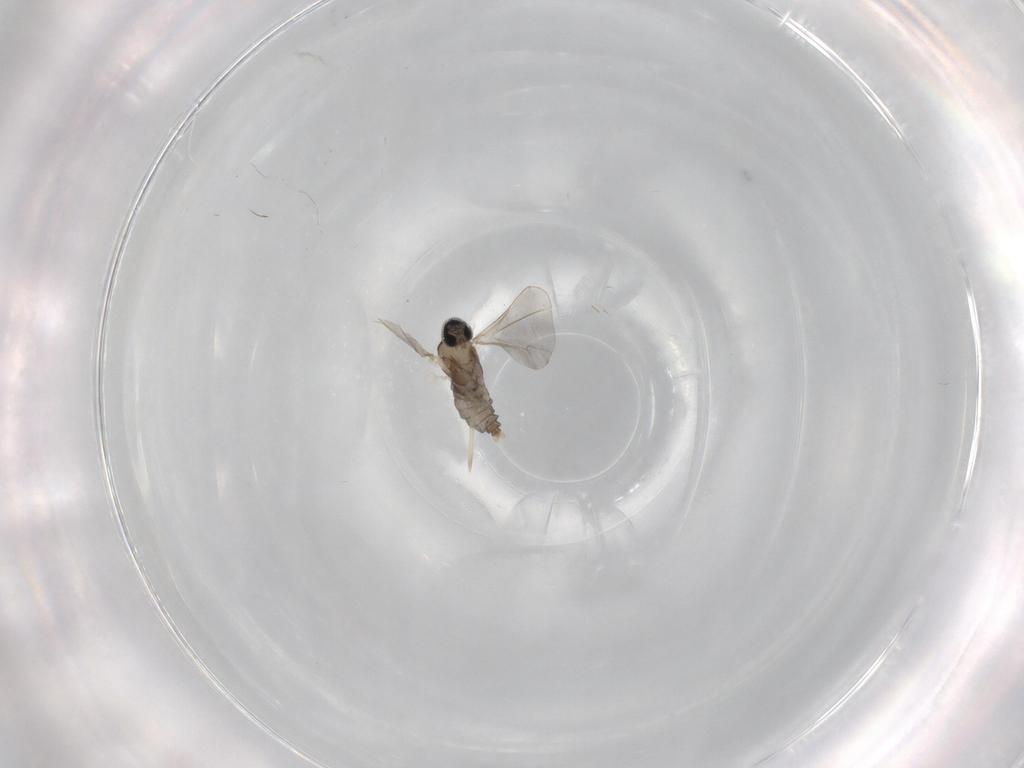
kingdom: Animalia
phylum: Arthropoda
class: Insecta
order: Diptera
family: Cecidomyiidae
